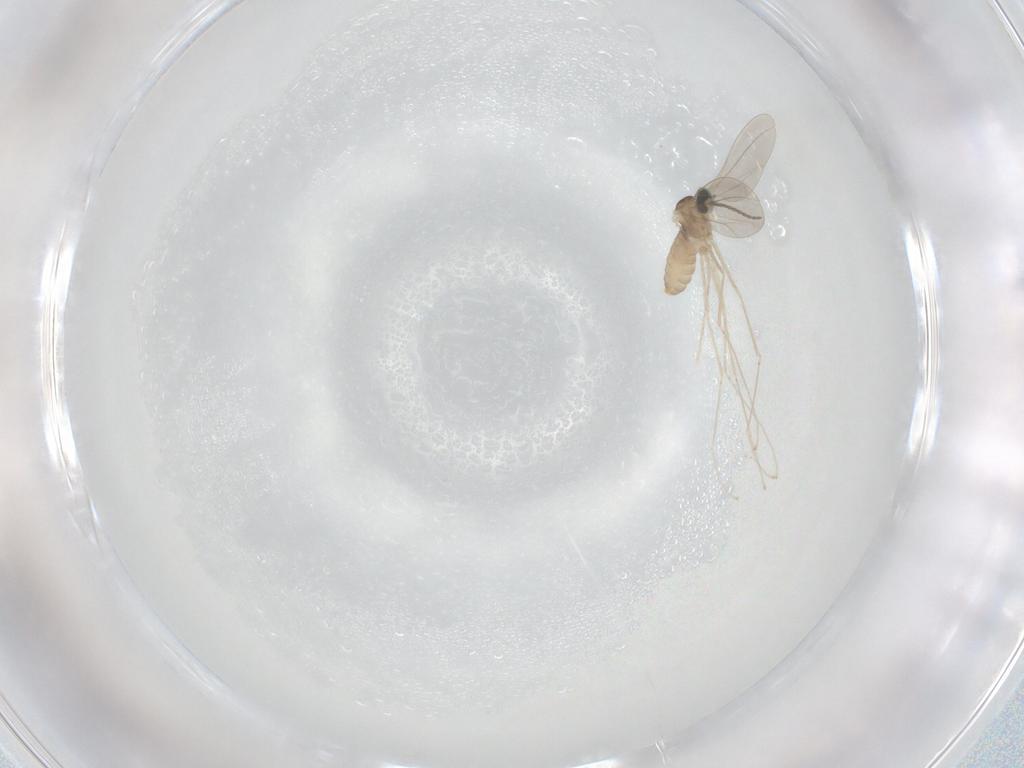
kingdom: Animalia
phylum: Arthropoda
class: Insecta
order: Diptera
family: Cecidomyiidae
